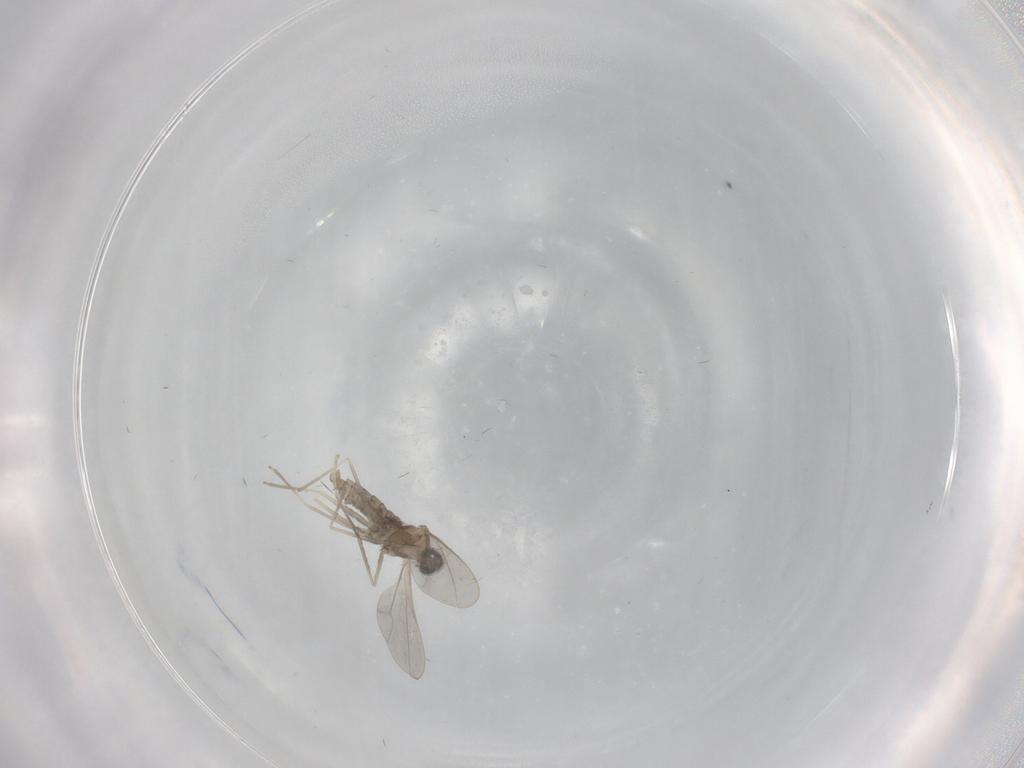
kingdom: Animalia
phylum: Arthropoda
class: Insecta
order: Diptera
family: Cecidomyiidae
